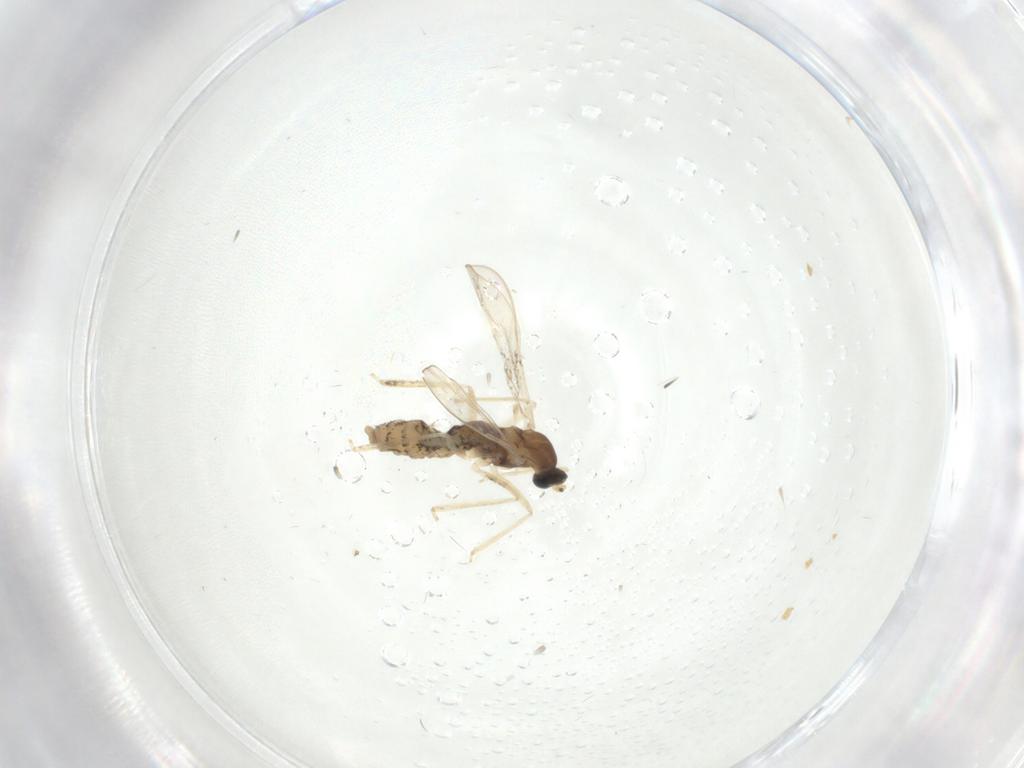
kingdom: Animalia
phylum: Arthropoda
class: Insecta
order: Diptera
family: Cecidomyiidae
